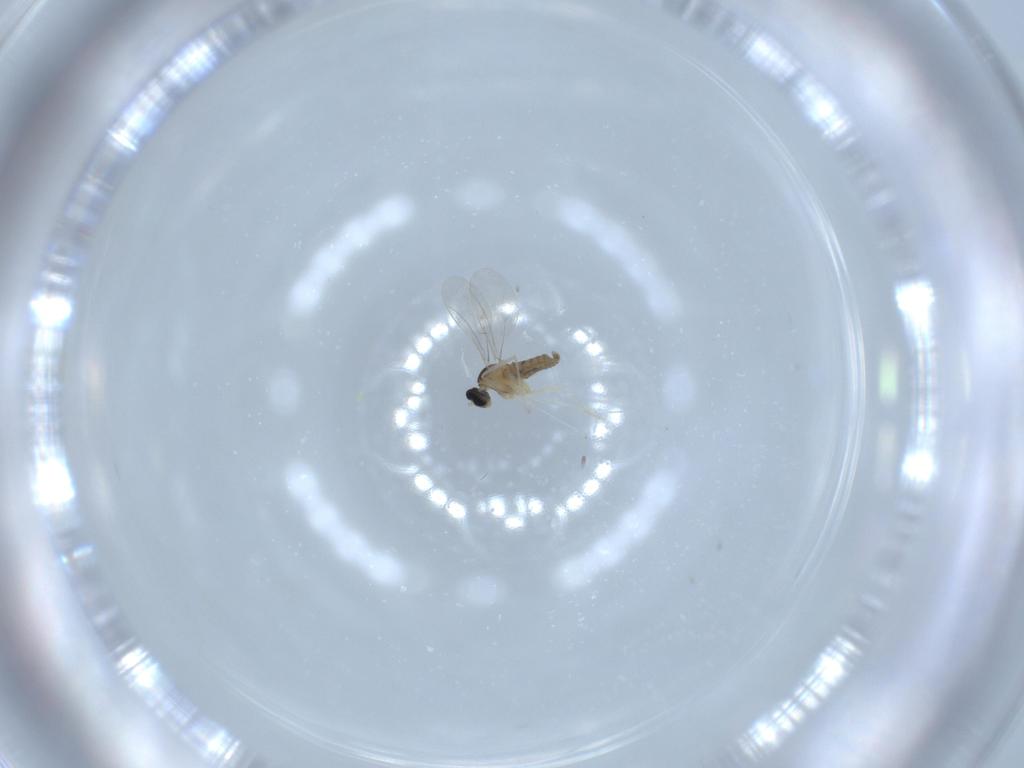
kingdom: Animalia
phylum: Arthropoda
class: Insecta
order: Diptera
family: Cecidomyiidae
